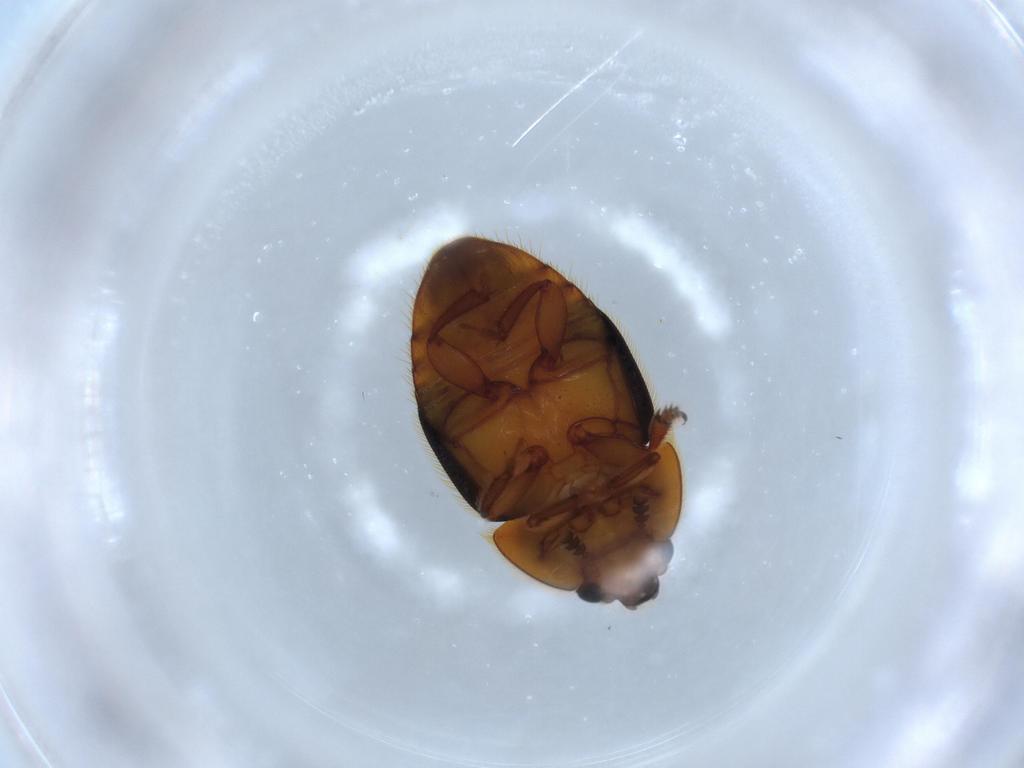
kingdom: Animalia
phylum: Arthropoda
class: Insecta
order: Coleoptera
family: Nitidulidae
